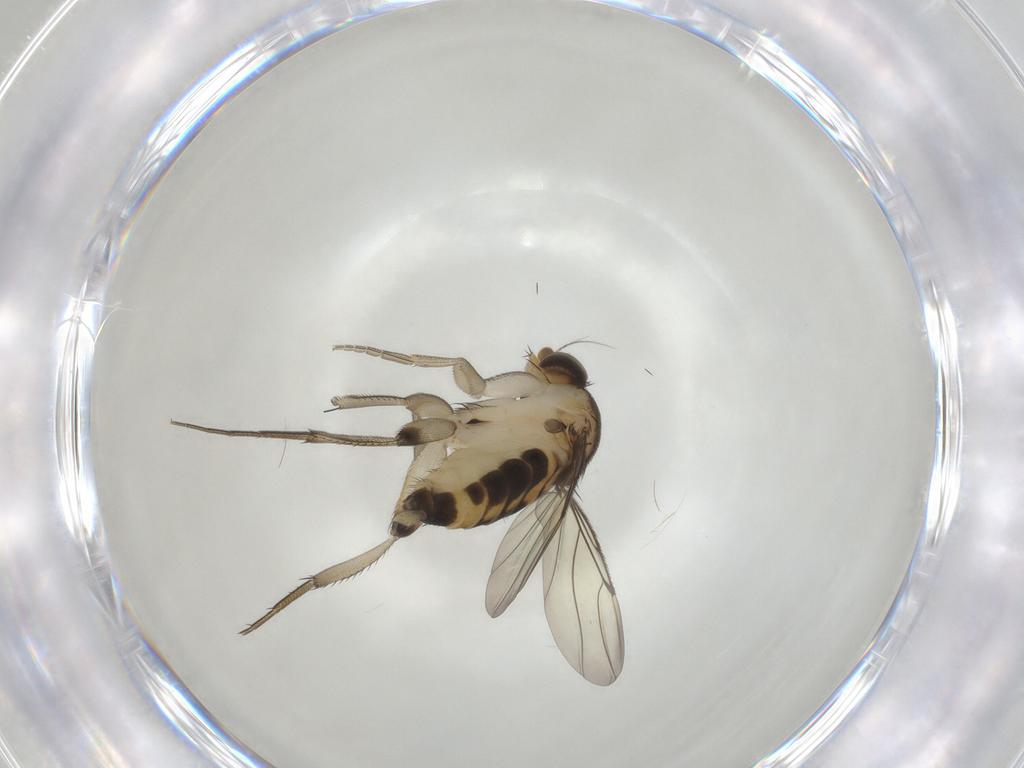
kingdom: Animalia
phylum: Arthropoda
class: Insecta
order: Diptera
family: Phoridae
